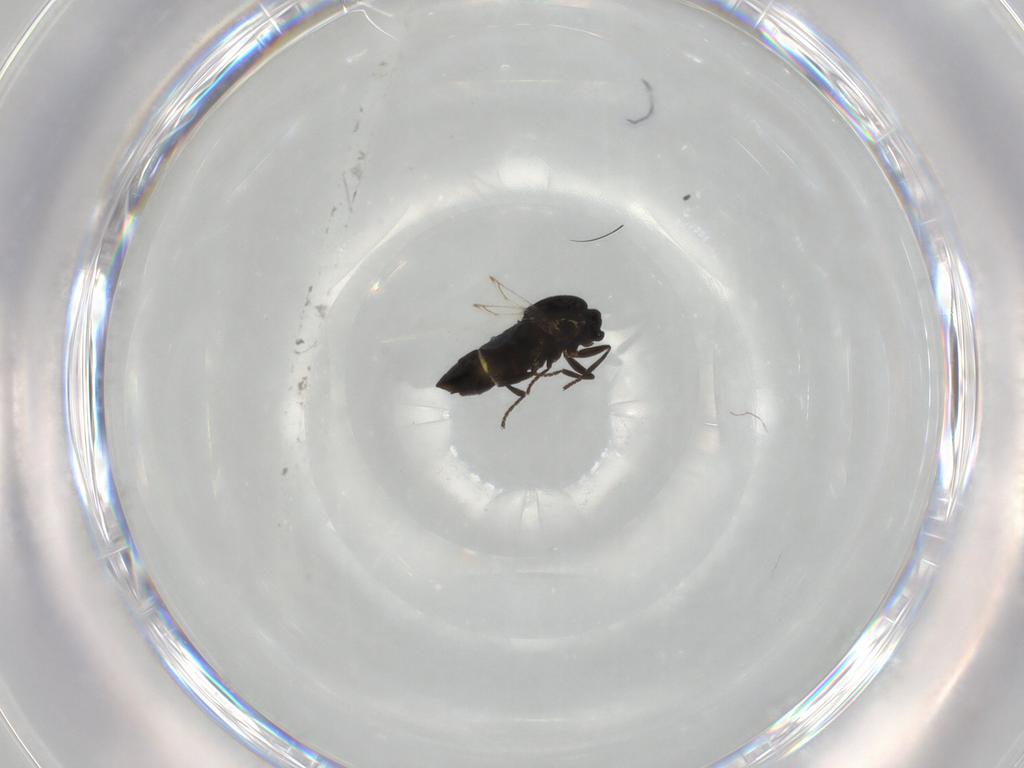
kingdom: Animalia
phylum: Arthropoda
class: Insecta
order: Diptera
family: Scatopsidae
